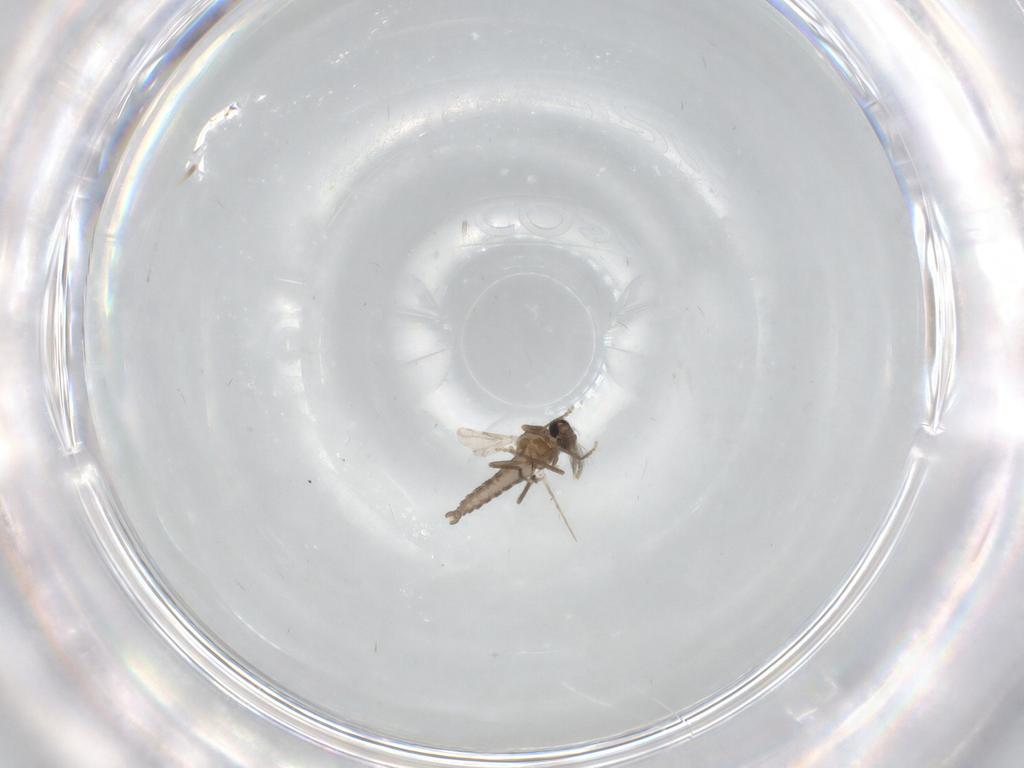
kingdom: Animalia
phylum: Arthropoda
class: Insecta
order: Diptera
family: Ceratopogonidae
